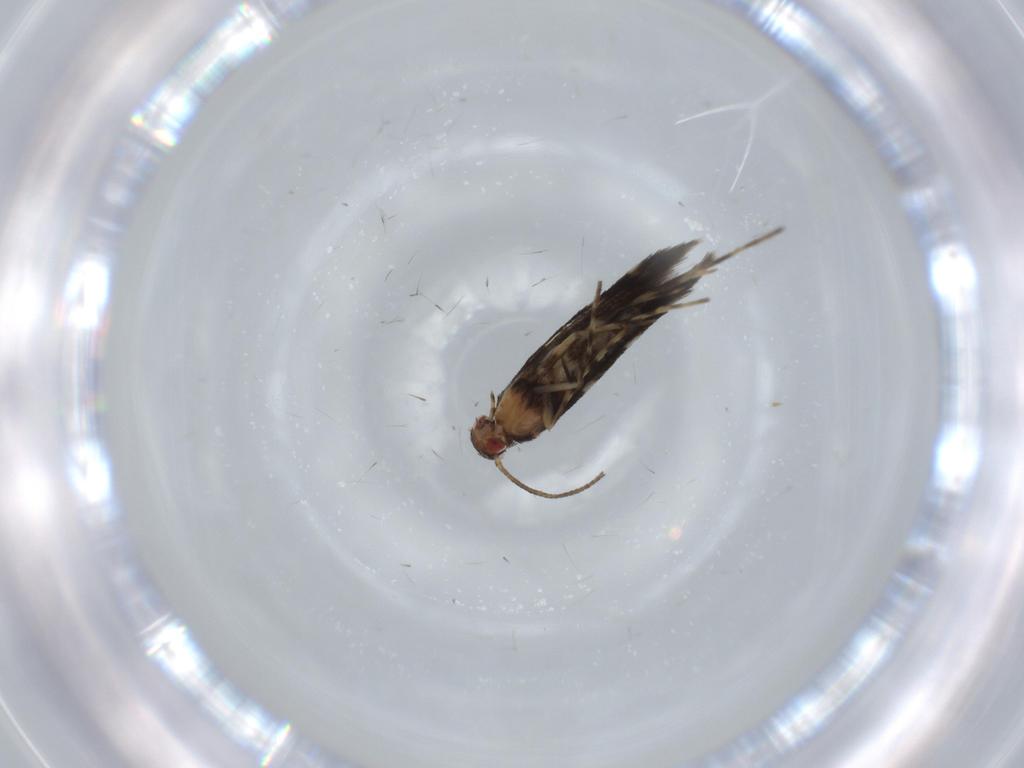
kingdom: Animalia
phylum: Arthropoda
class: Insecta
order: Lepidoptera
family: Gracillariidae
